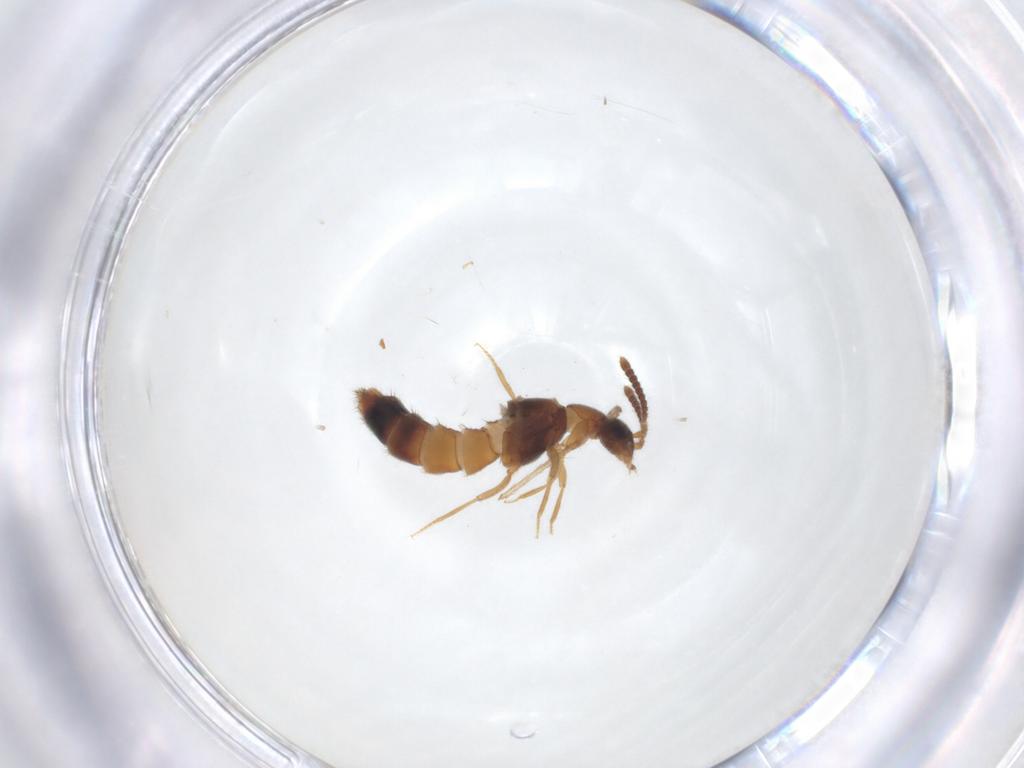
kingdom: Animalia
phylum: Arthropoda
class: Insecta
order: Coleoptera
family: Staphylinidae
